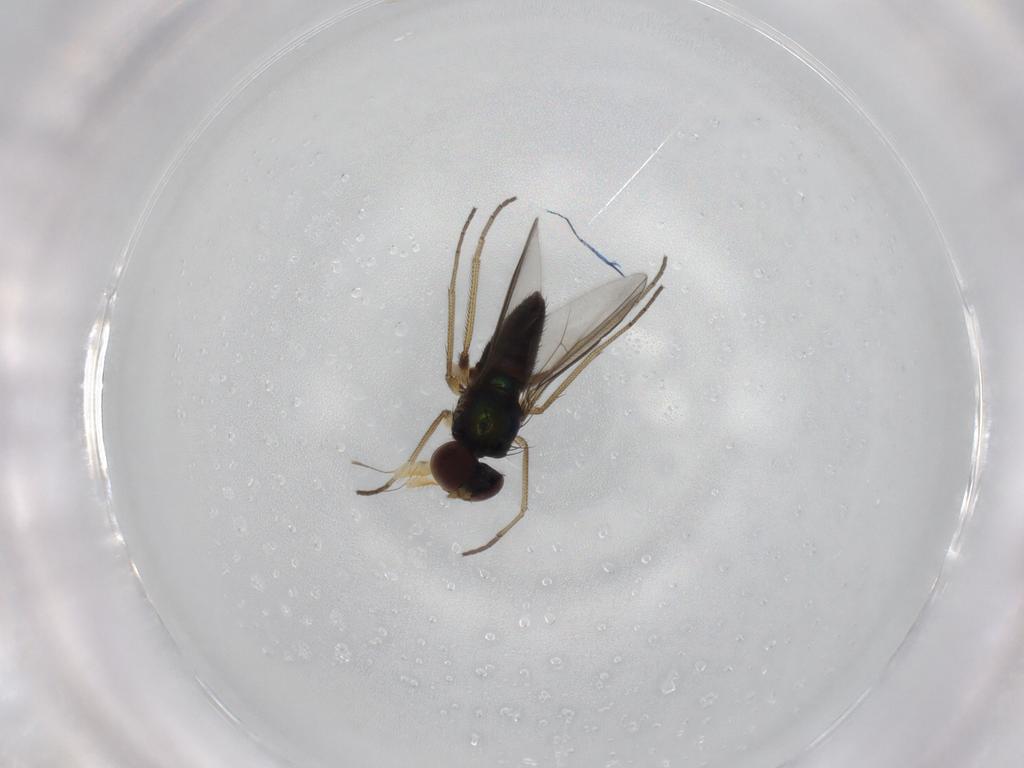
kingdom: Animalia
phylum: Arthropoda
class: Insecta
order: Diptera
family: Dolichopodidae
